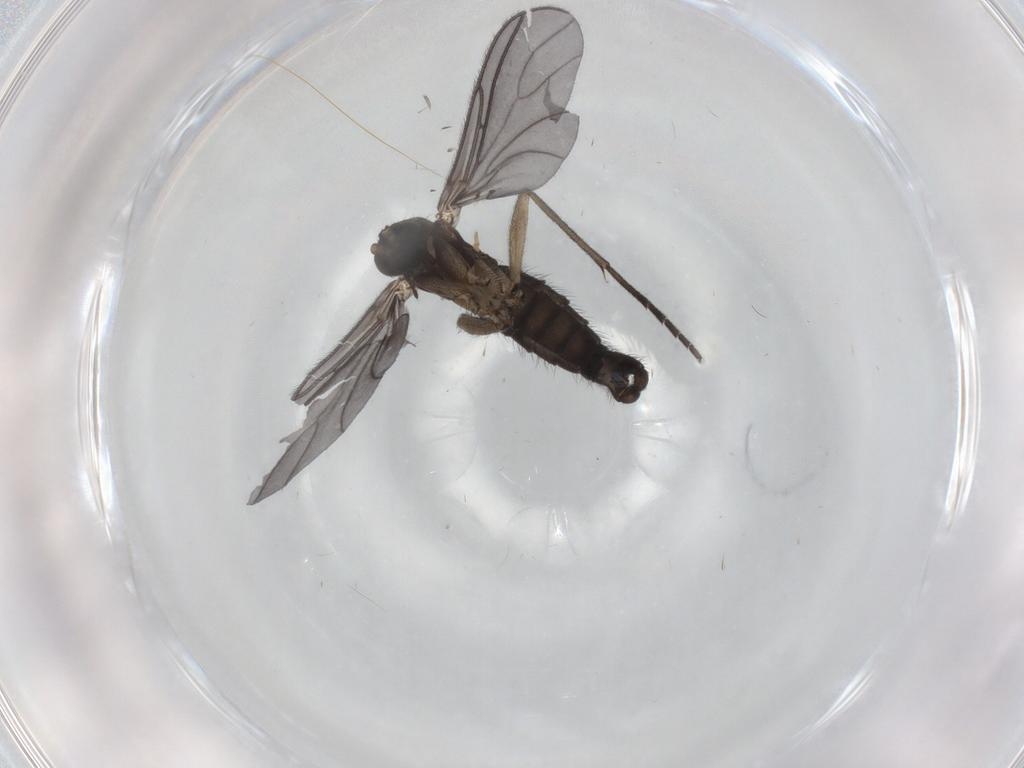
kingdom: Animalia
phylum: Arthropoda
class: Insecta
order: Diptera
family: Sciaridae
